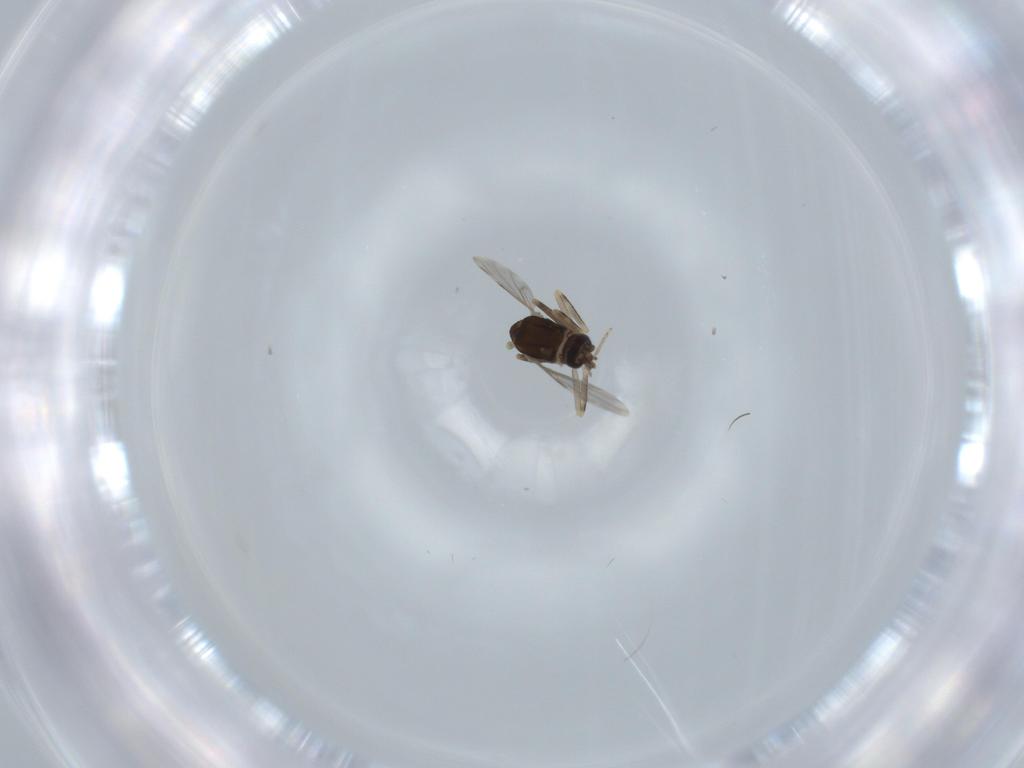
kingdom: Animalia
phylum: Arthropoda
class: Insecta
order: Diptera
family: Ceratopogonidae
